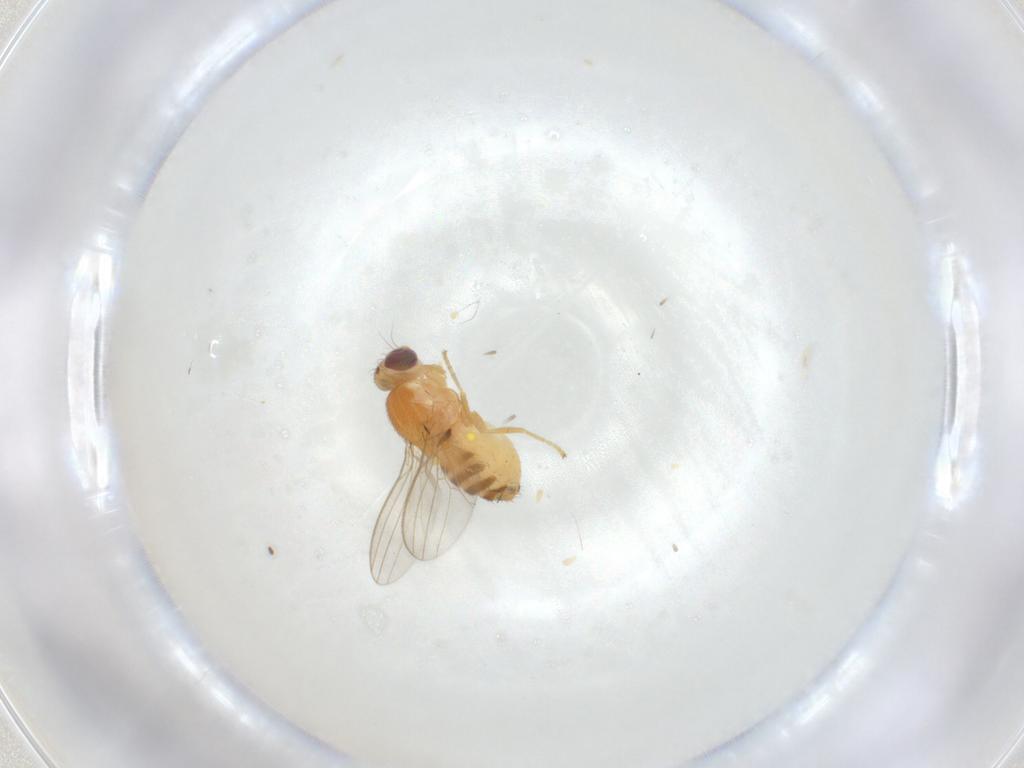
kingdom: Animalia
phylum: Arthropoda
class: Insecta
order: Diptera
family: Chyromyidae
